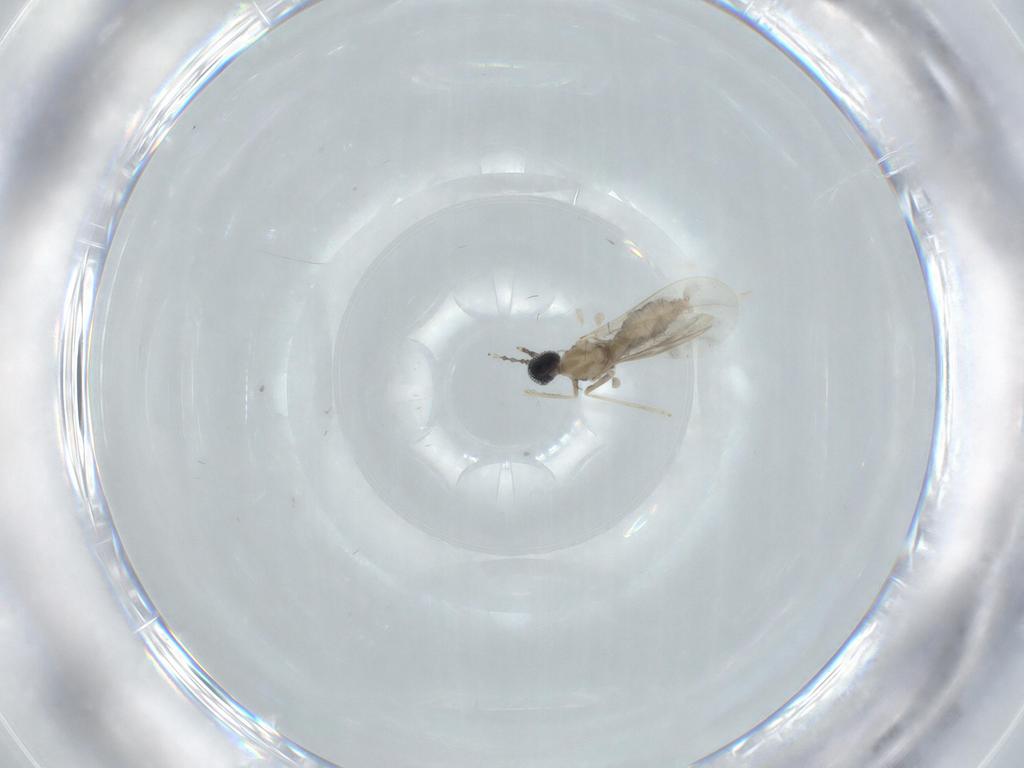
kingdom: Animalia
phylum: Arthropoda
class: Insecta
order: Diptera
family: Cecidomyiidae
